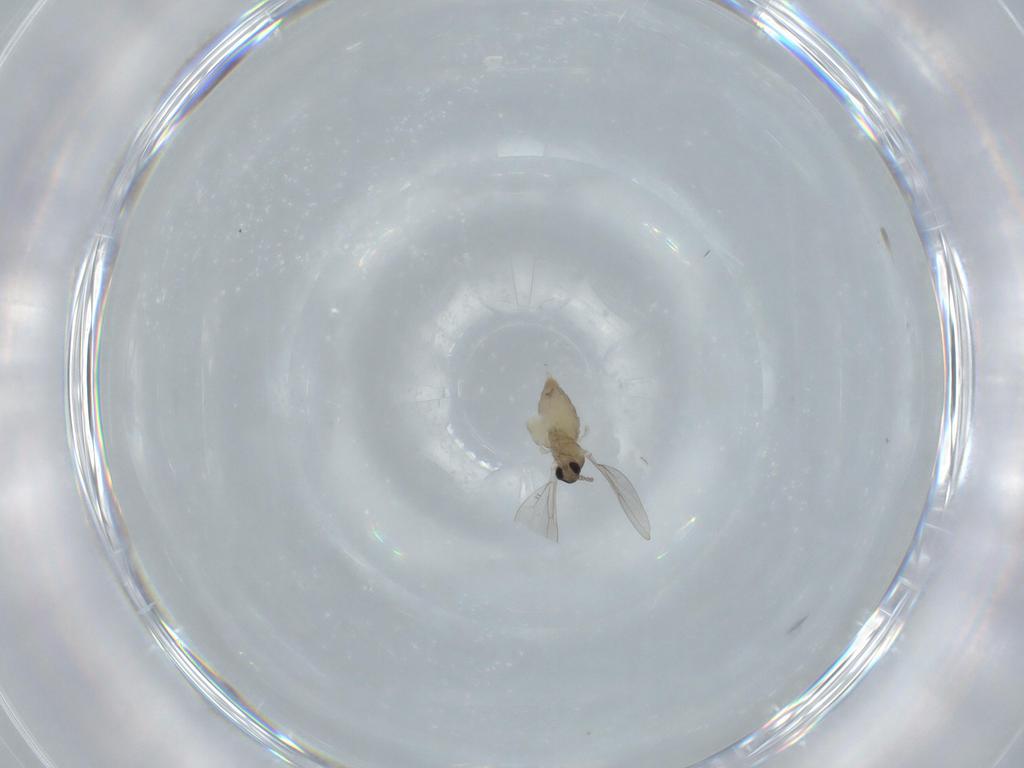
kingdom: Animalia
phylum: Arthropoda
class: Insecta
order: Diptera
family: Cecidomyiidae
